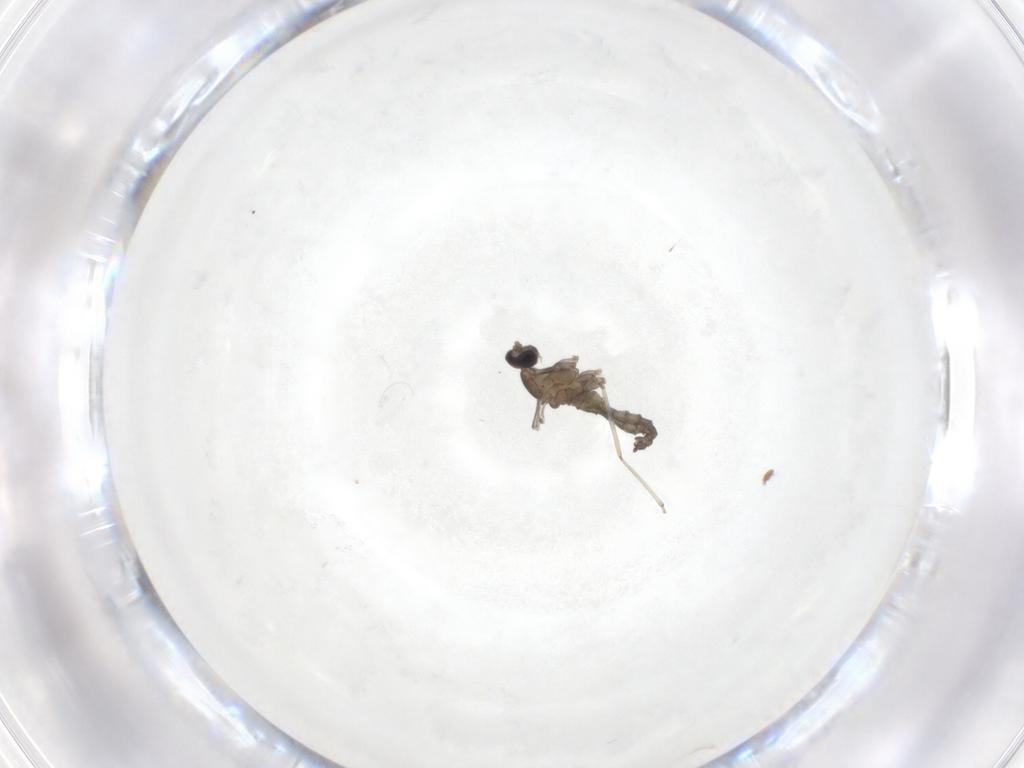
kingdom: Animalia
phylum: Arthropoda
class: Insecta
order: Diptera
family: Cecidomyiidae
